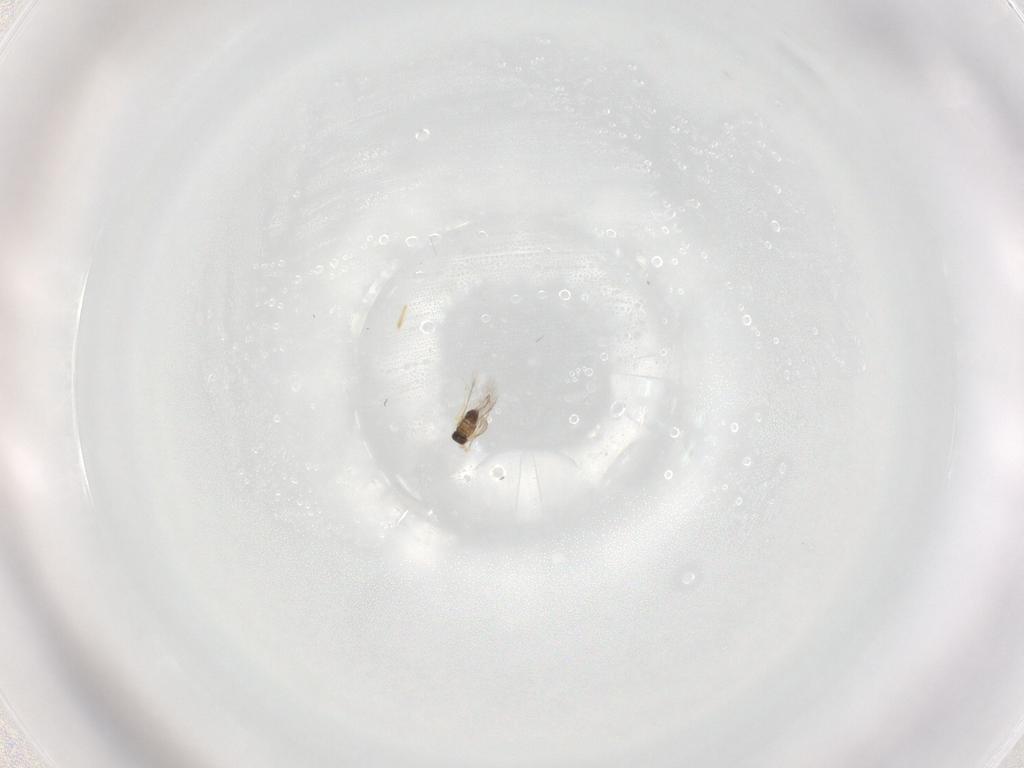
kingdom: Animalia
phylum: Arthropoda
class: Insecta
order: Hymenoptera
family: Mymaridae
